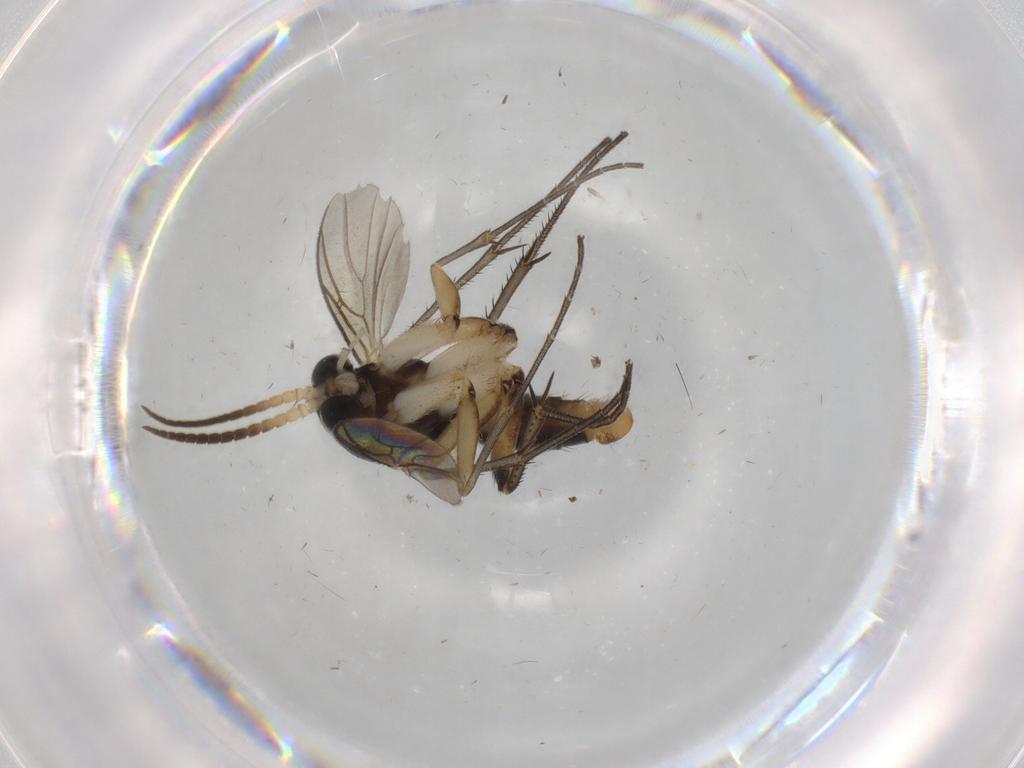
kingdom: Animalia
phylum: Arthropoda
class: Insecta
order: Diptera
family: Mycetophilidae
